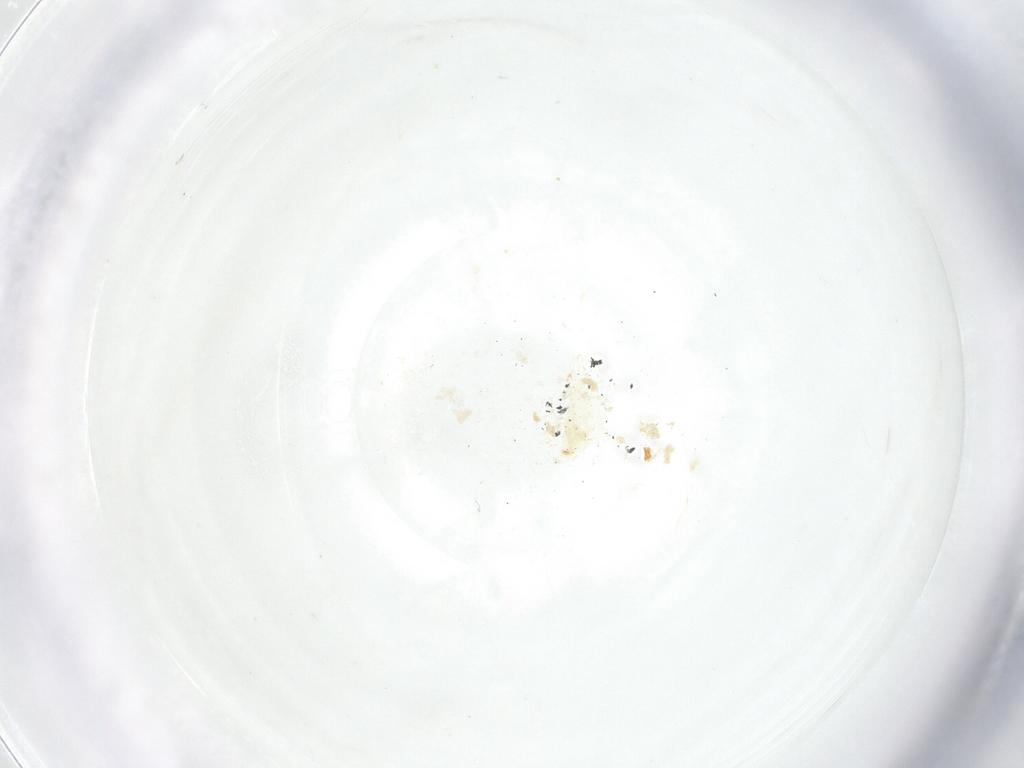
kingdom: Animalia
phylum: Arthropoda
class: Insecta
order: Diptera
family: Fergusoninidae
